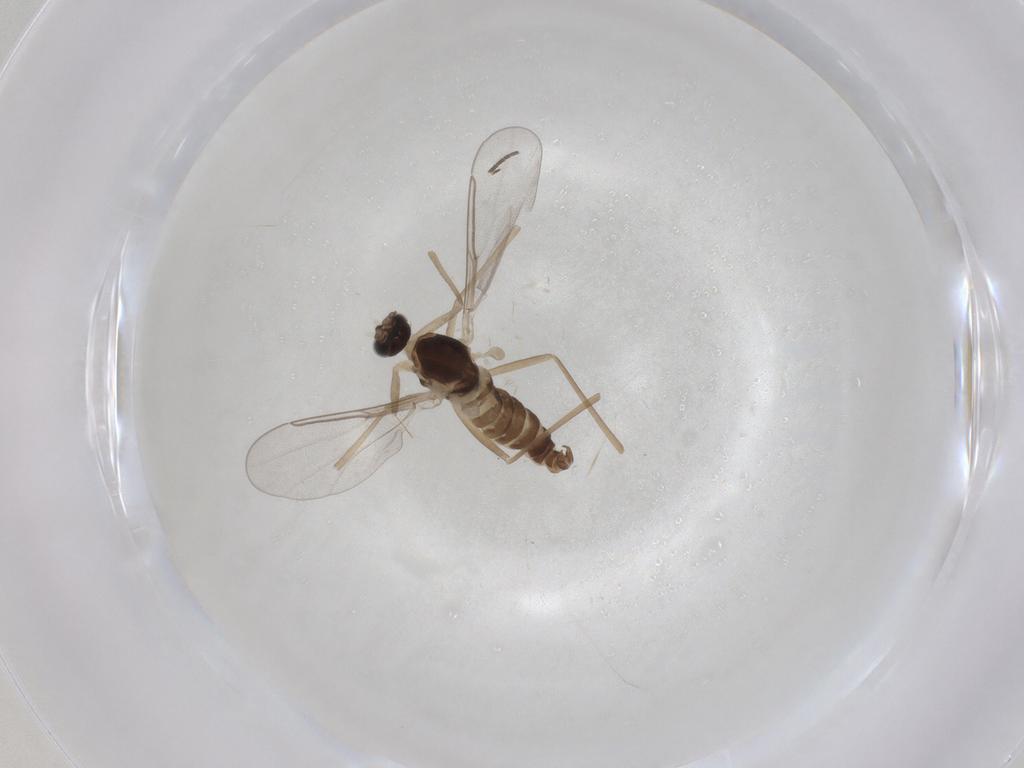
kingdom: Animalia
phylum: Arthropoda
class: Insecta
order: Diptera
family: Cecidomyiidae
